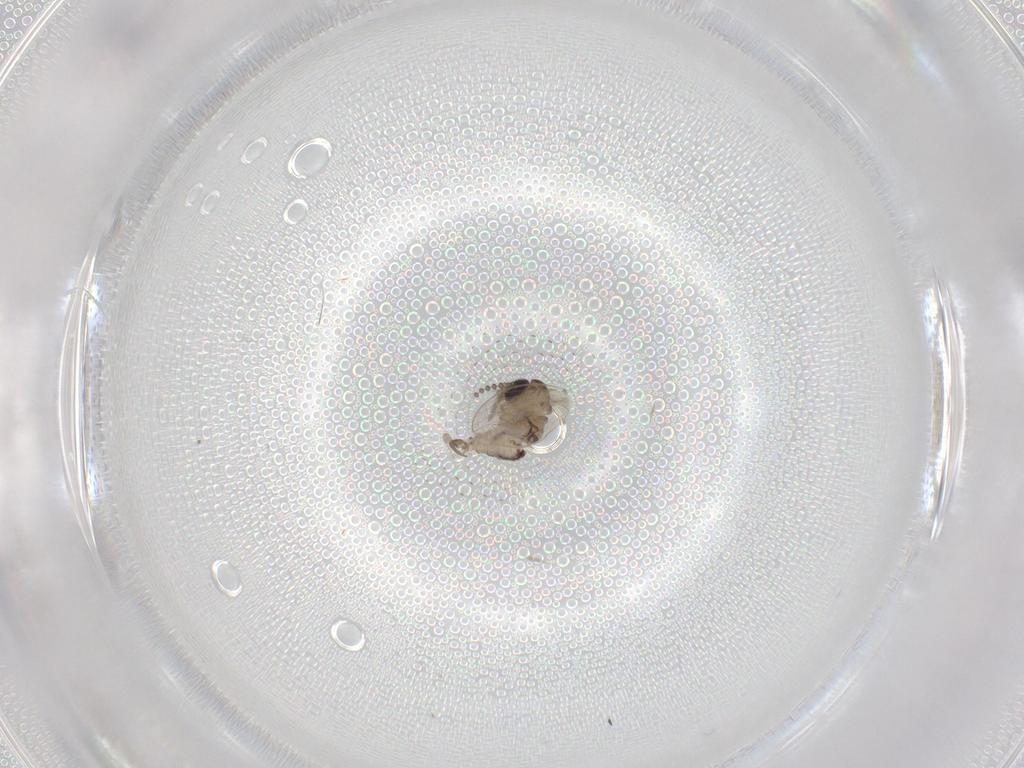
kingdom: Animalia
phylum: Arthropoda
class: Insecta
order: Diptera
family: Psychodidae
